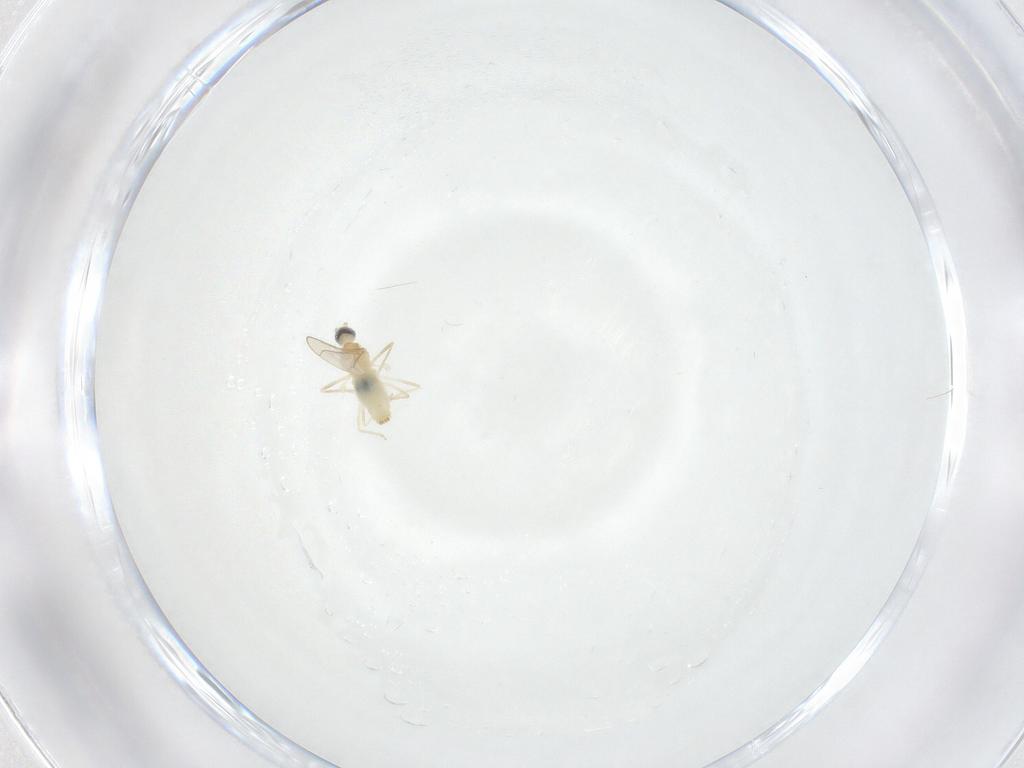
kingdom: Animalia
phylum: Arthropoda
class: Insecta
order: Diptera
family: Cecidomyiidae
